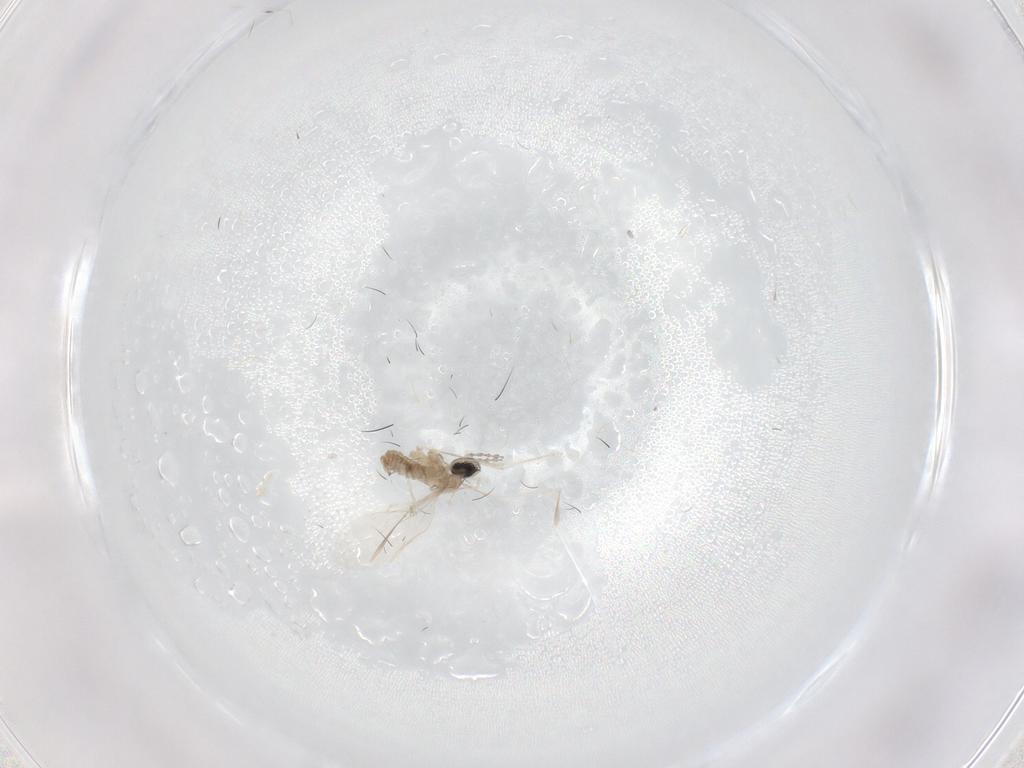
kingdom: Animalia
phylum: Arthropoda
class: Insecta
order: Diptera
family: Cecidomyiidae
